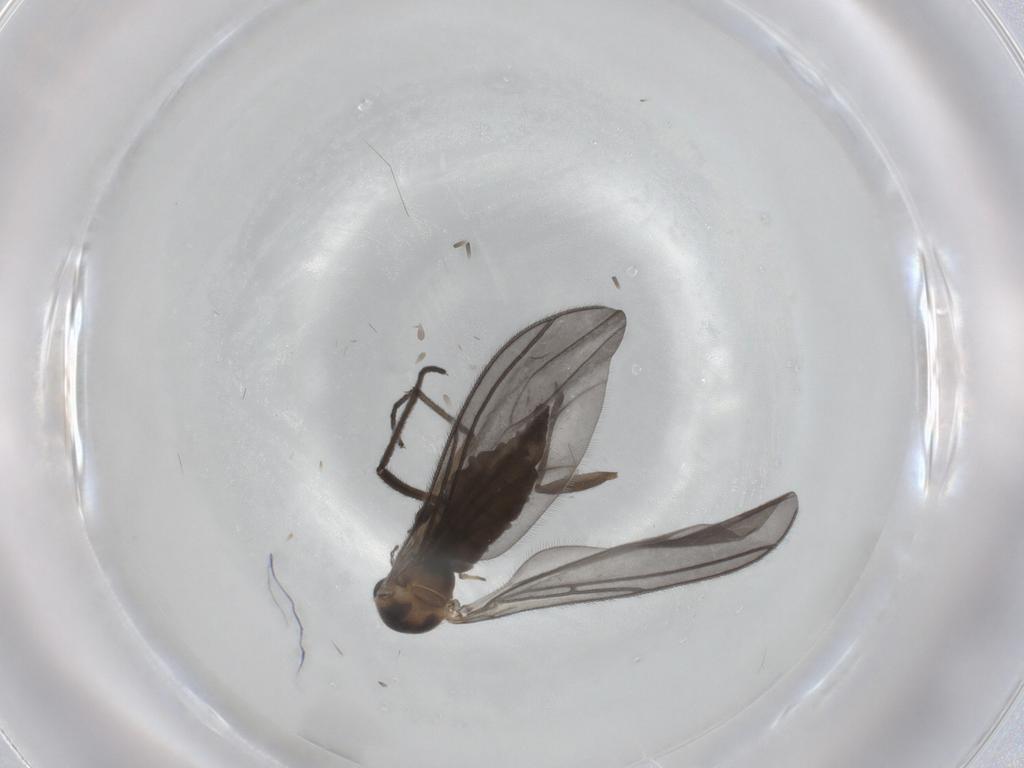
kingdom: Animalia
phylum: Arthropoda
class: Insecta
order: Diptera
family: Sciaridae
